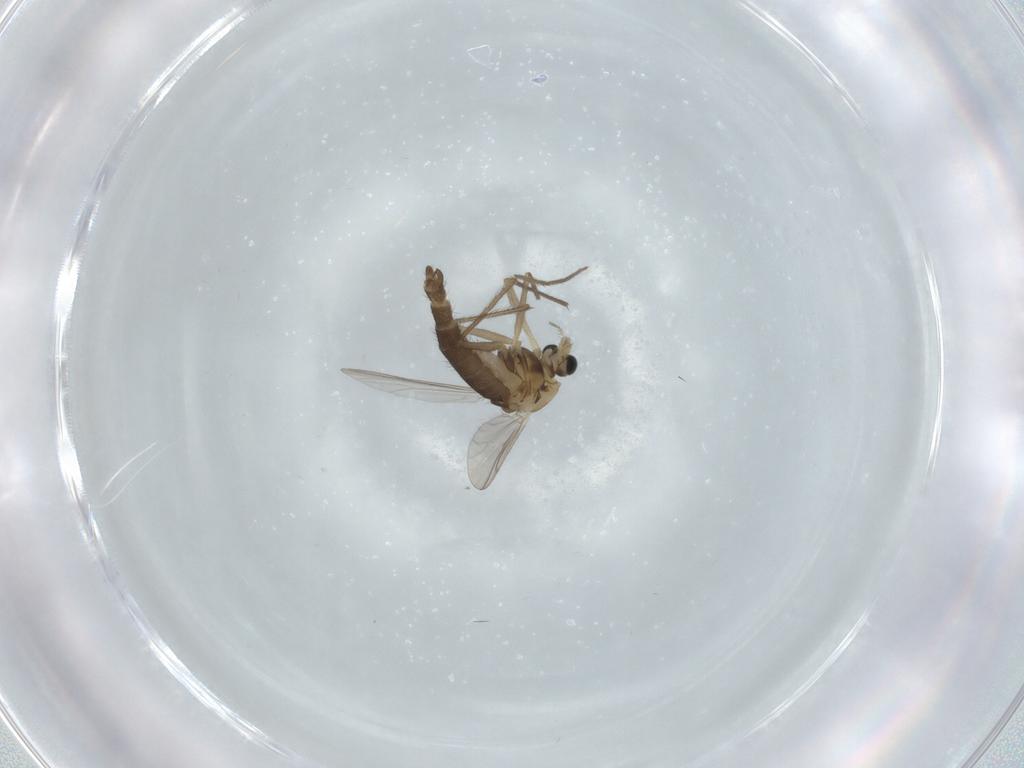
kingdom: Animalia
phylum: Arthropoda
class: Insecta
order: Diptera
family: Chironomidae
